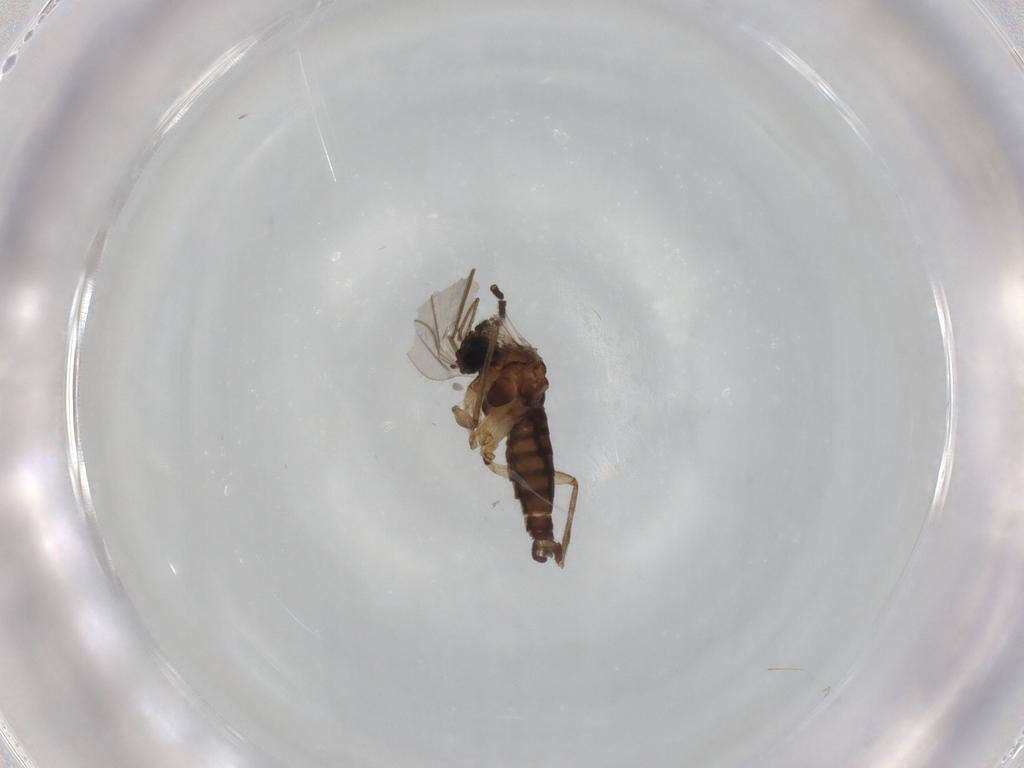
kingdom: Animalia
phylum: Arthropoda
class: Insecta
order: Diptera
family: Sciaridae
